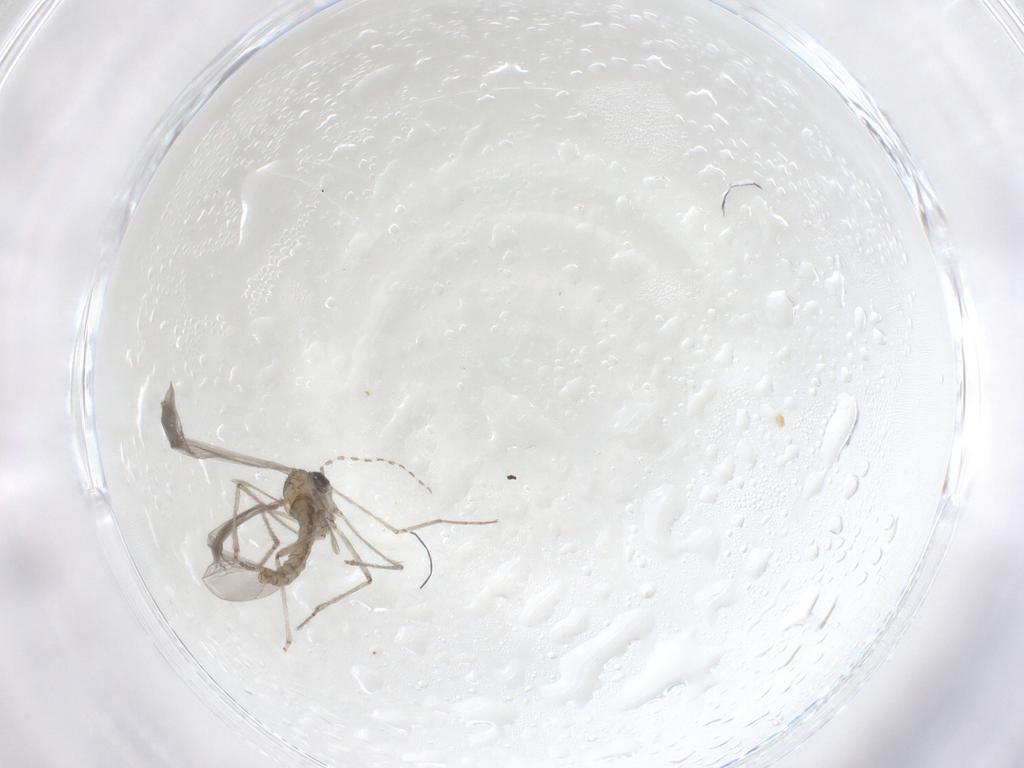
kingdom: Animalia
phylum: Arthropoda
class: Insecta
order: Diptera
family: Cecidomyiidae
